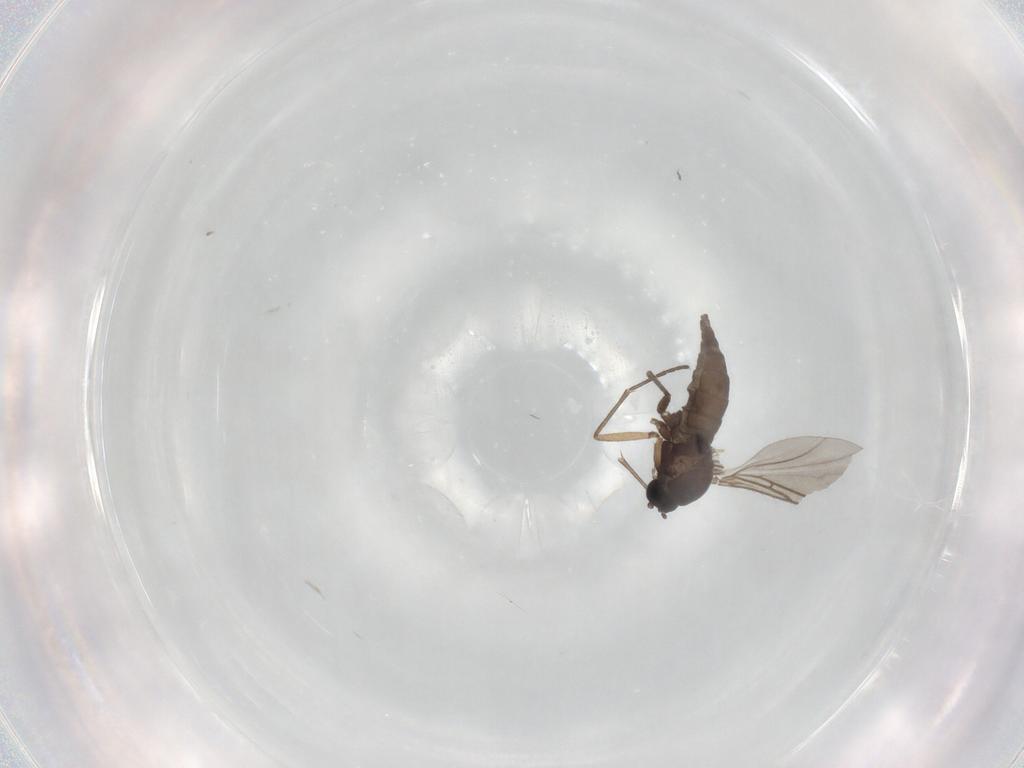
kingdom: Animalia
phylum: Arthropoda
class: Insecta
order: Diptera
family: Sciaridae
